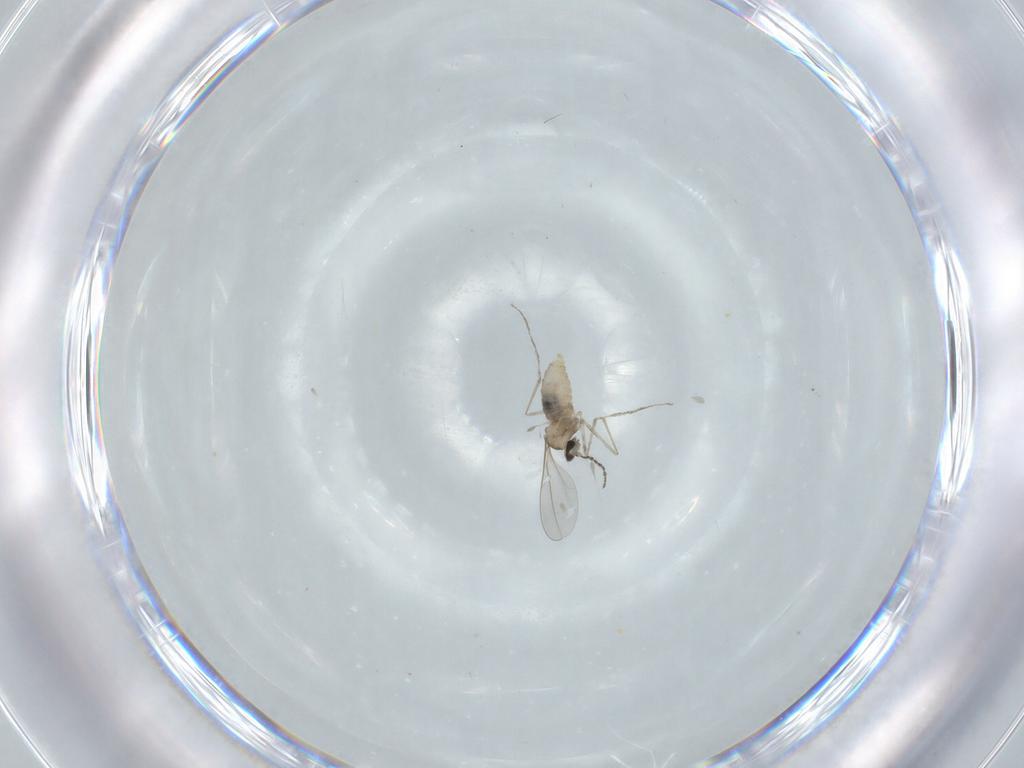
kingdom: Animalia
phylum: Arthropoda
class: Insecta
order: Diptera
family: Cecidomyiidae
